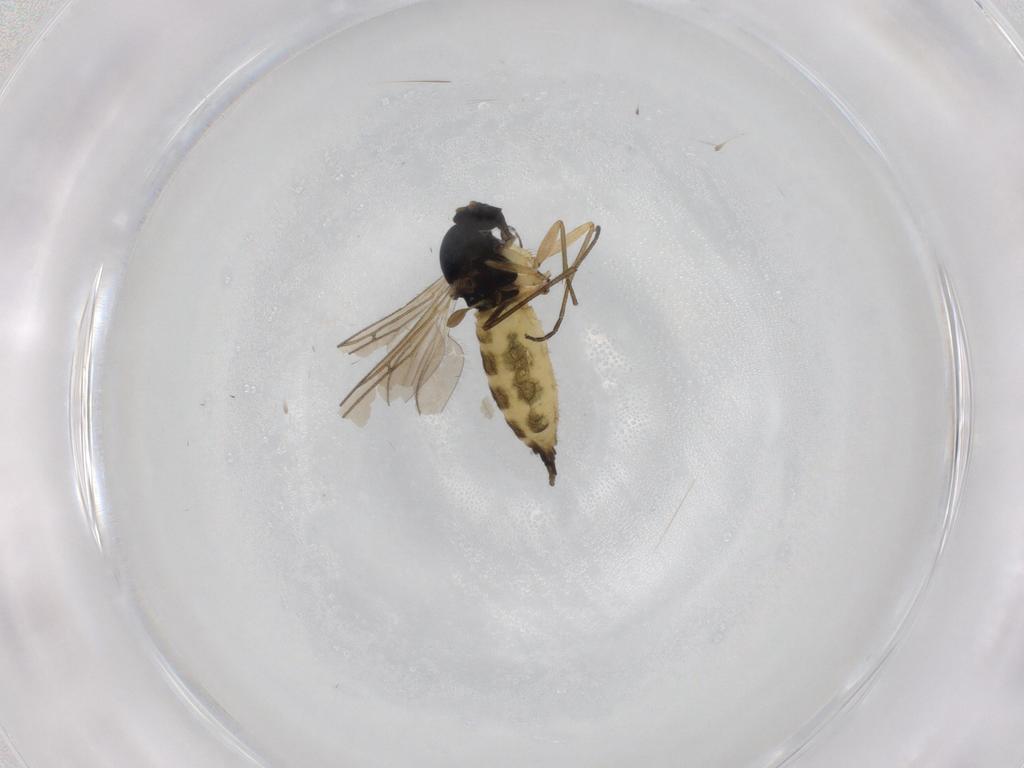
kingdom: Animalia
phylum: Arthropoda
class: Insecta
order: Diptera
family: Sciaridae
